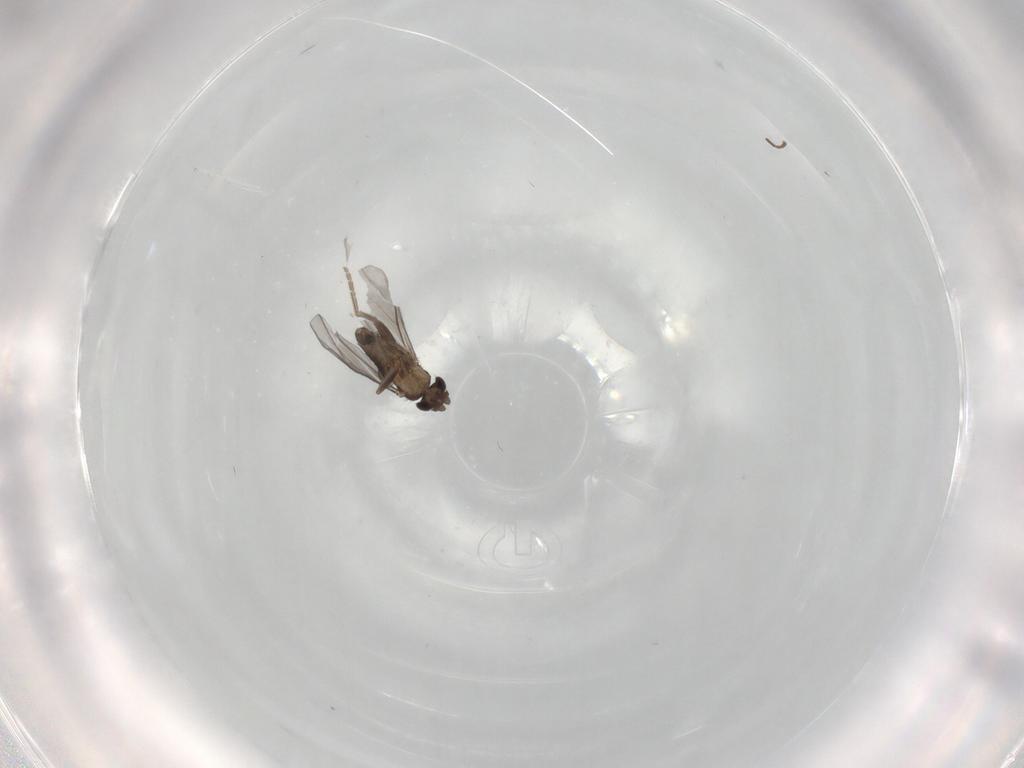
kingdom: Animalia
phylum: Arthropoda
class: Insecta
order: Diptera
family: Sphaeroceridae
